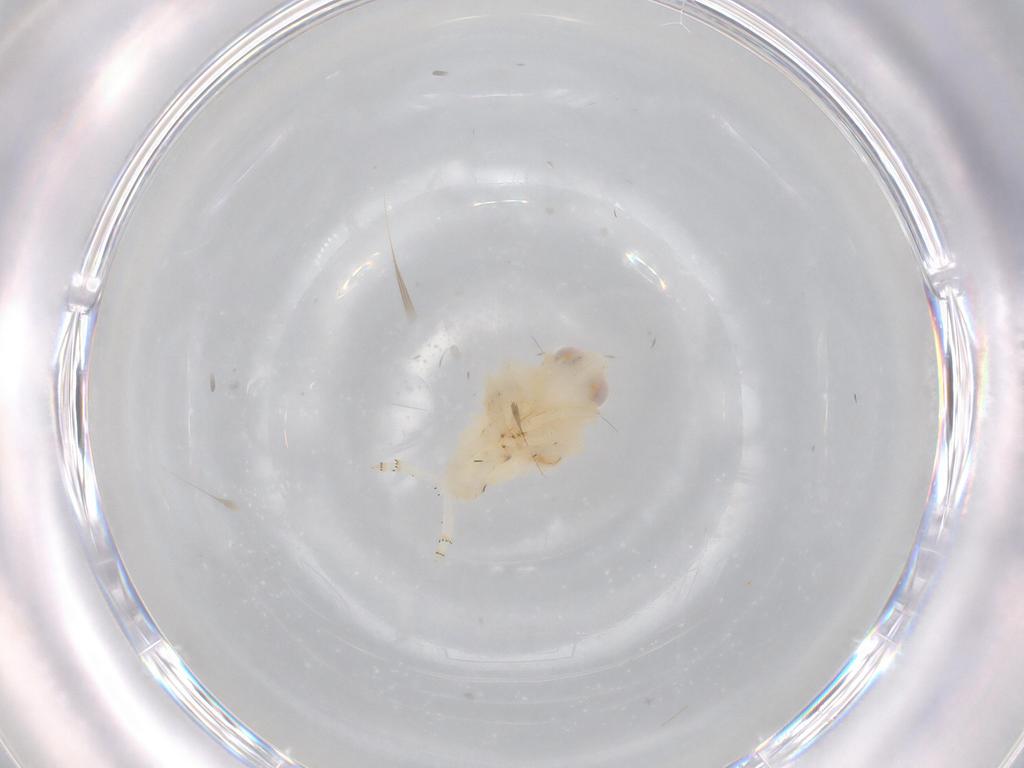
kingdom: Animalia
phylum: Arthropoda
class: Insecta
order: Hemiptera
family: Nogodinidae
